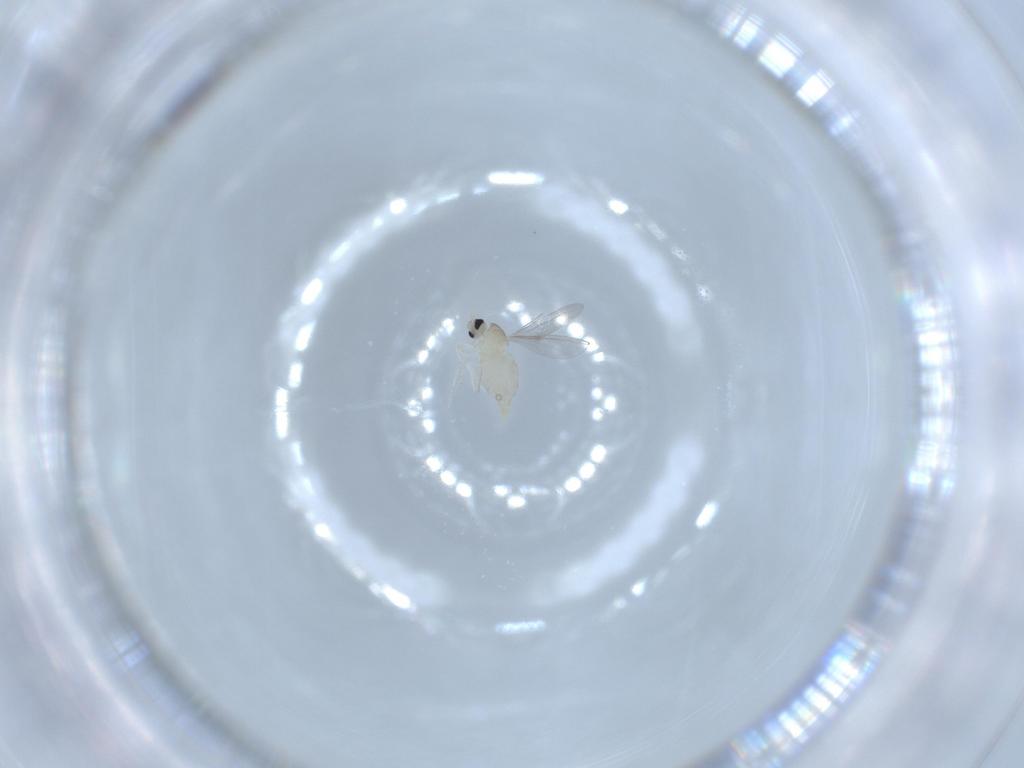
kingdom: Animalia
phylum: Arthropoda
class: Insecta
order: Diptera
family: Cecidomyiidae
